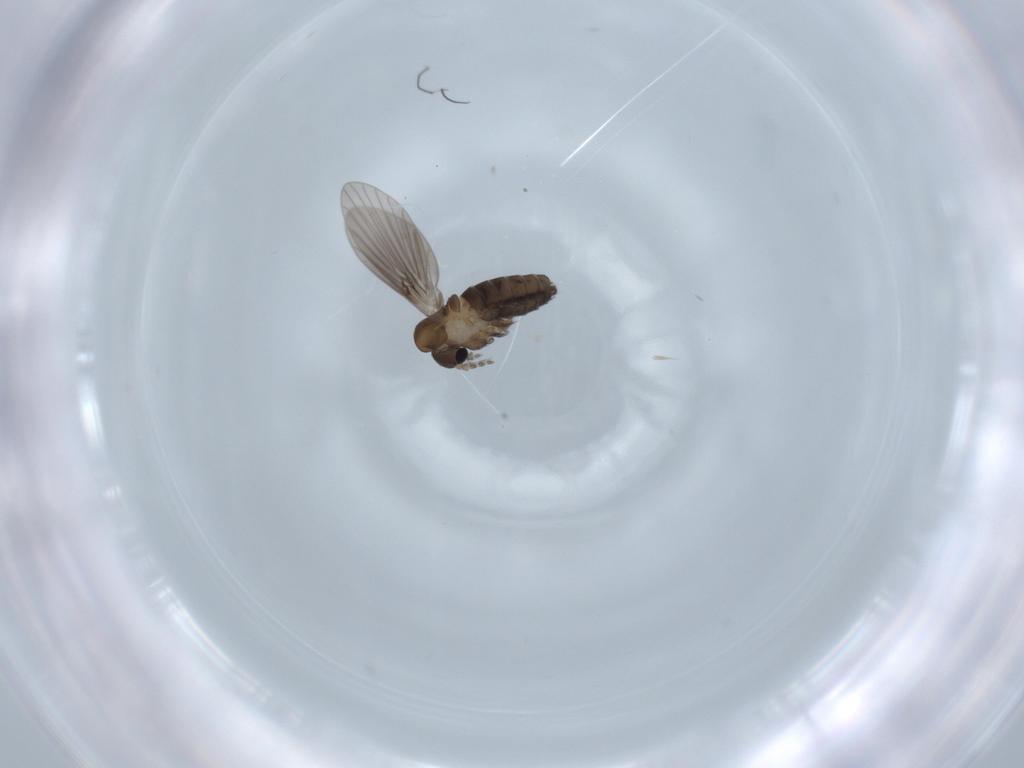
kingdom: Animalia
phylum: Arthropoda
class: Insecta
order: Diptera
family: Psychodidae
